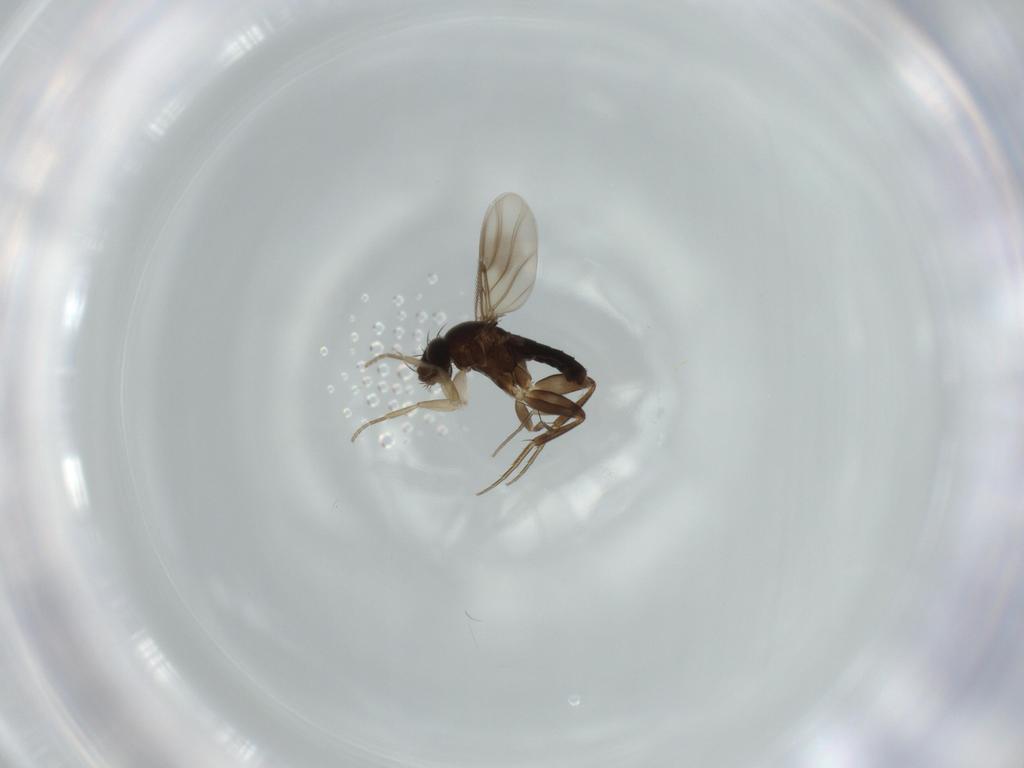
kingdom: Animalia
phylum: Arthropoda
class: Insecta
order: Diptera
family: Phoridae
